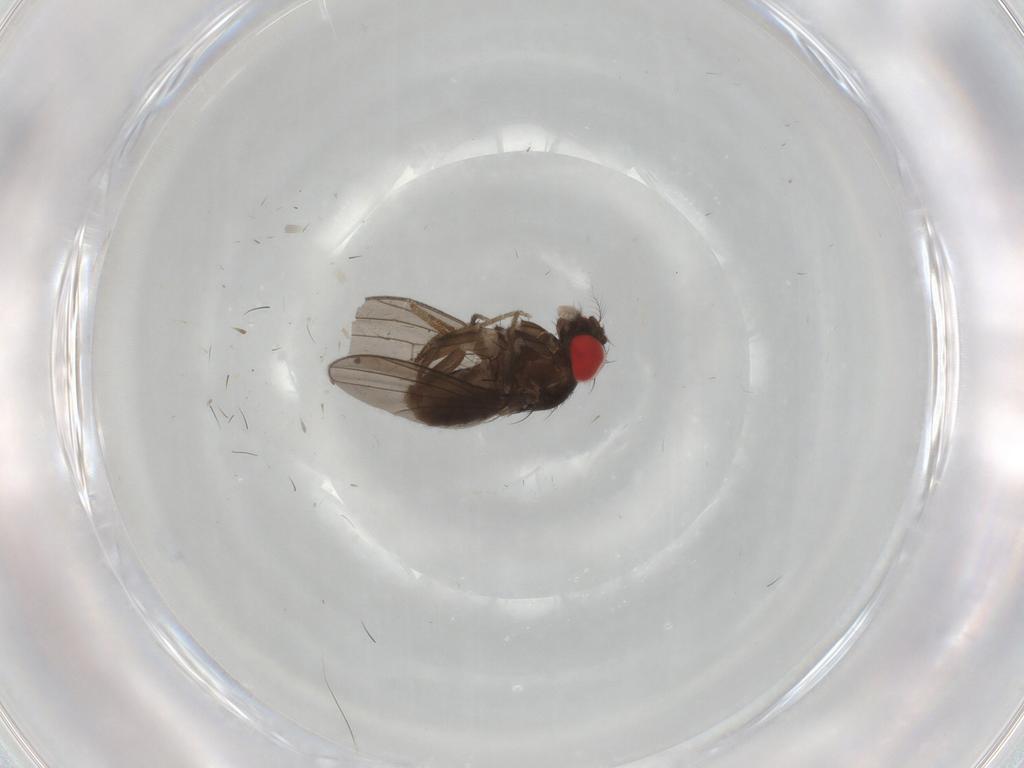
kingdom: Animalia
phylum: Arthropoda
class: Insecta
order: Diptera
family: Drosophilidae
